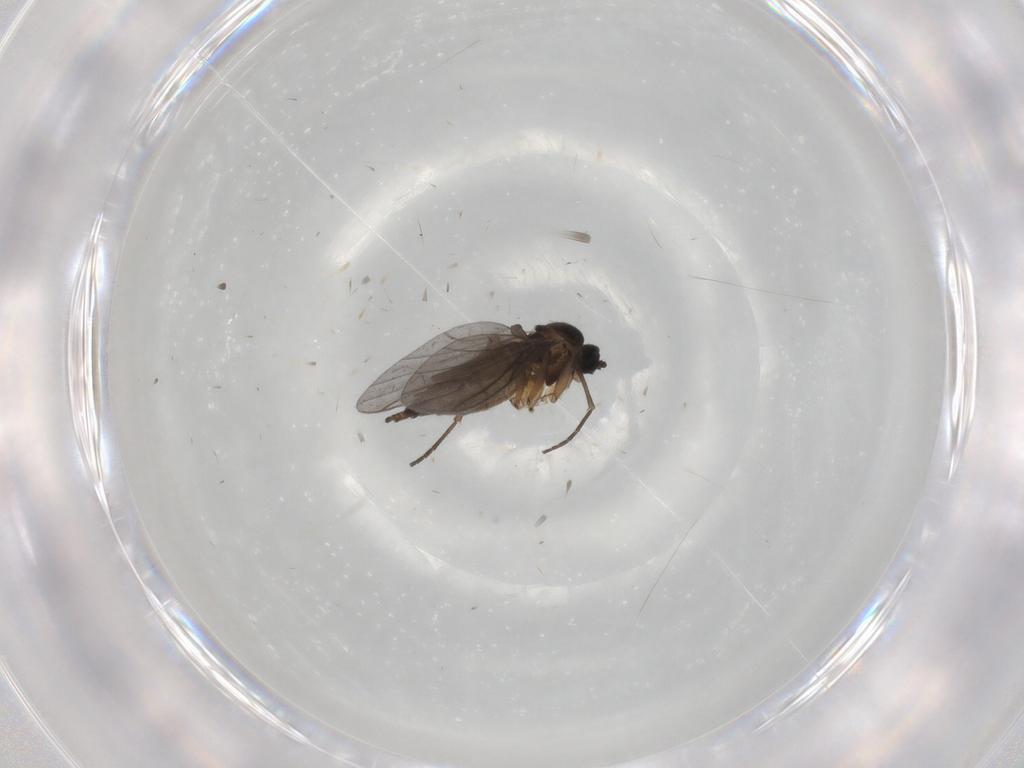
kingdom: Animalia
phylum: Arthropoda
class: Insecta
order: Diptera
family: Sciaridae
